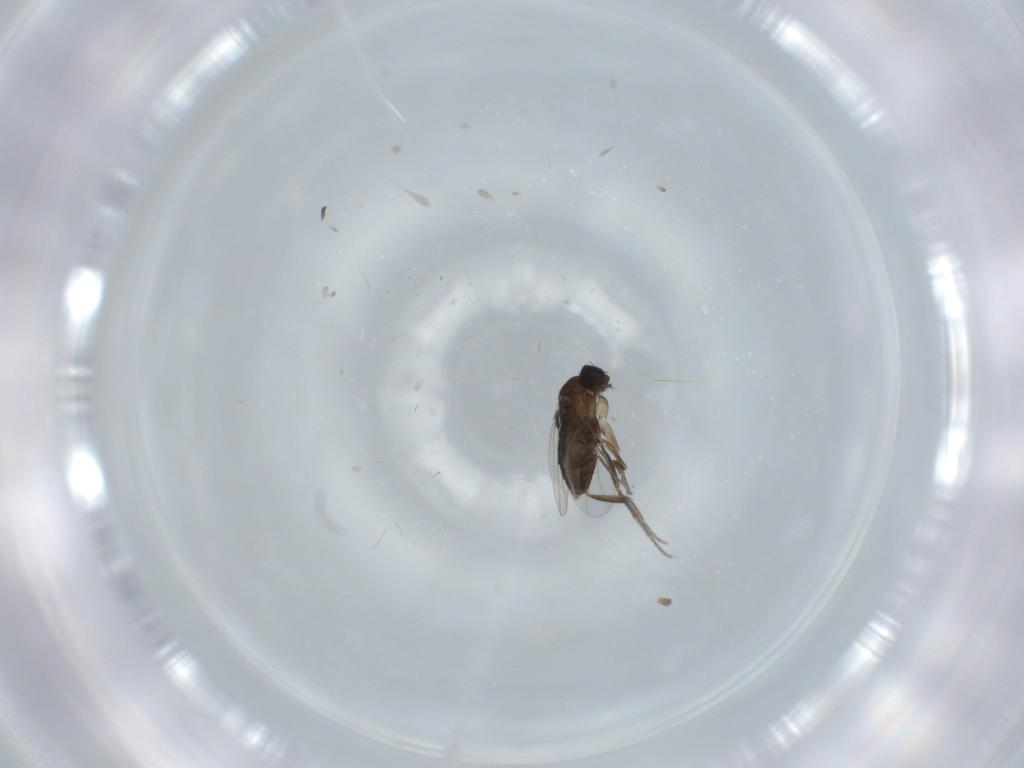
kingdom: Animalia
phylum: Arthropoda
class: Insecta
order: Diptera
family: Phoridae
